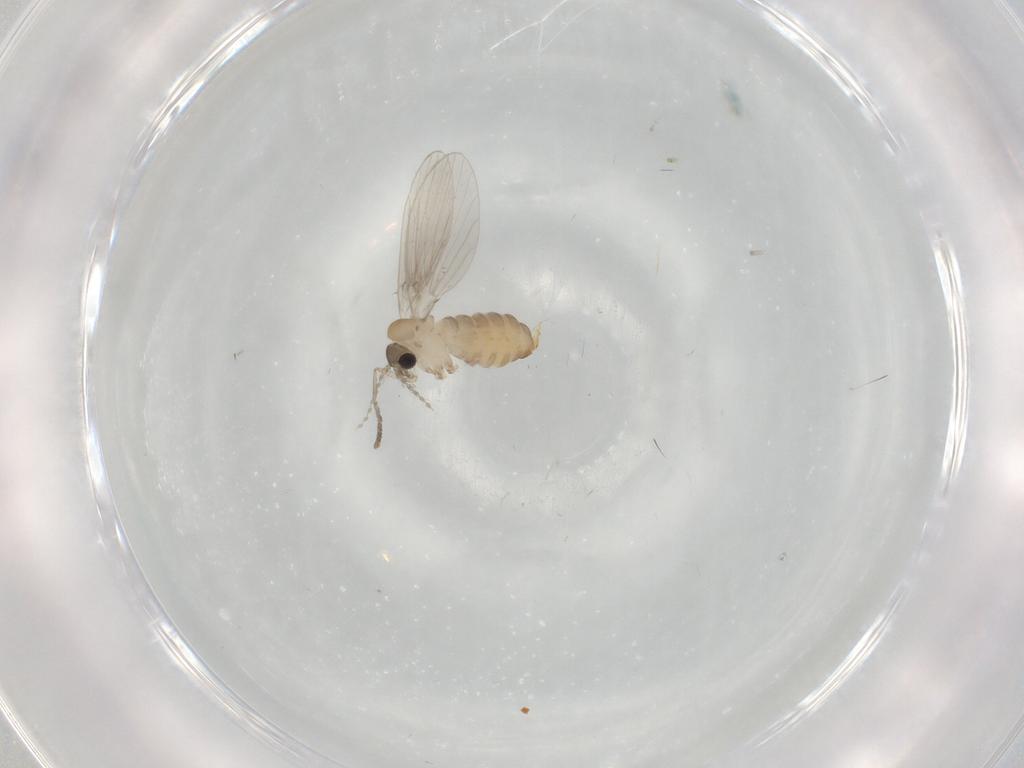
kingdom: Animalia
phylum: Arthropoda
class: Insecta
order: Diptera
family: Psychodidae
